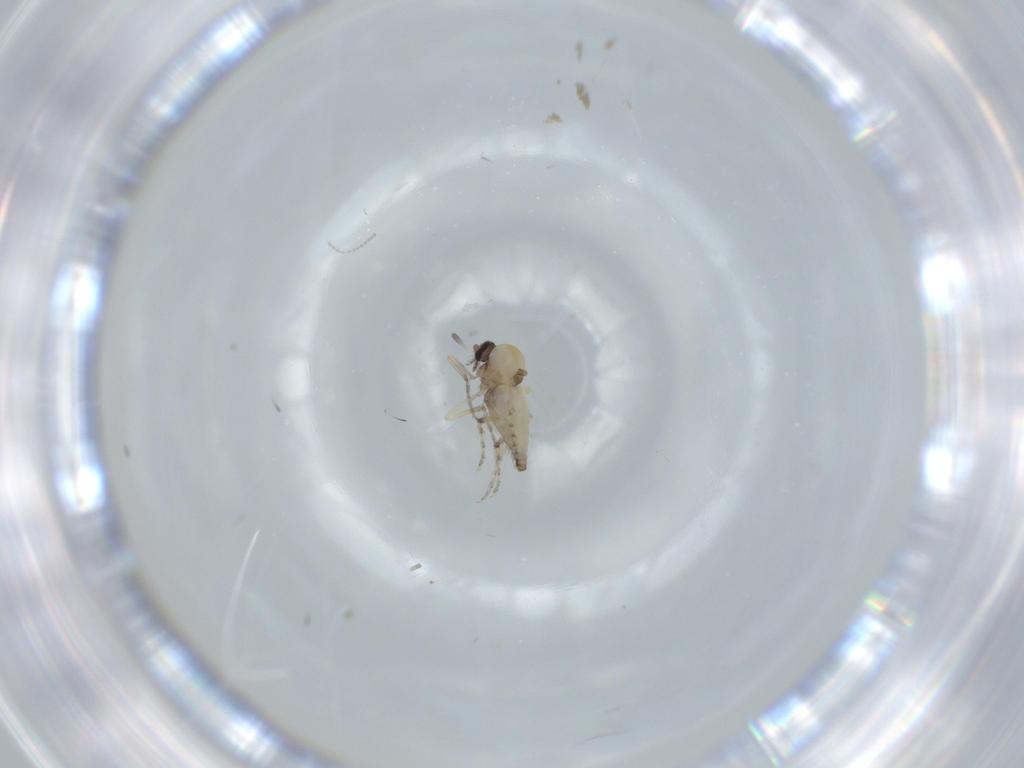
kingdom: Animalia
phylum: Arthropoda
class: Insecta
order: Diptera
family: Ceratopogonidae
